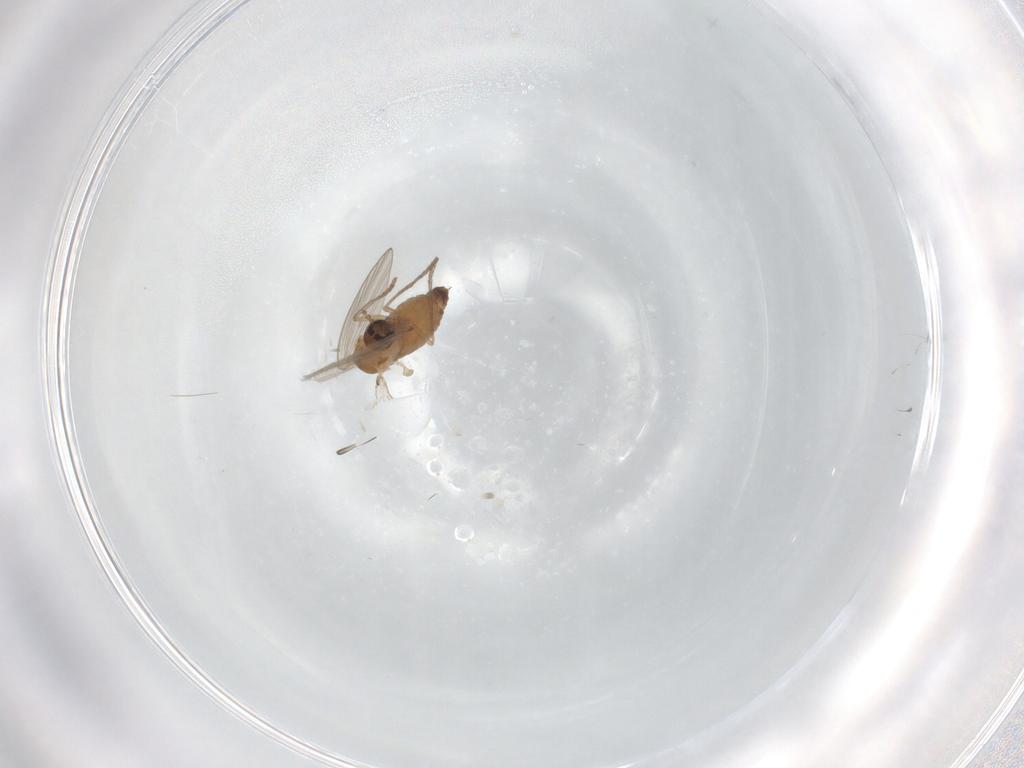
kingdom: Animalia
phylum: Arthropoda
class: Insecta
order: Diptera
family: Psychodidae
